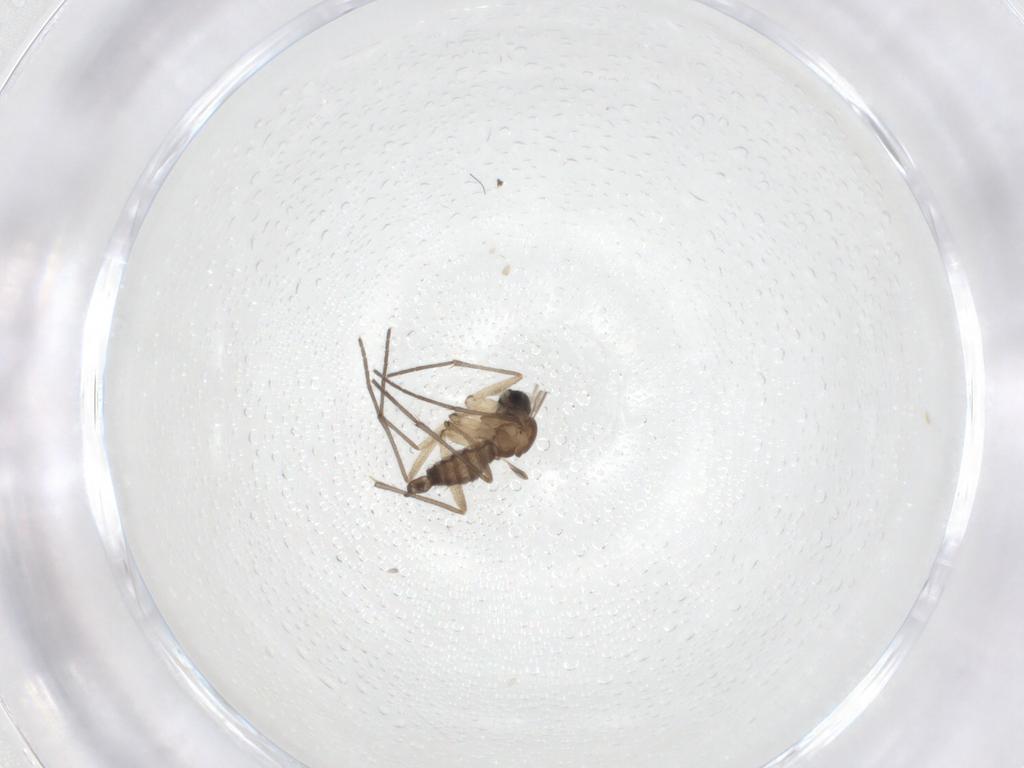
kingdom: Animalia
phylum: Arthropoda
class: Insecta
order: Diptera
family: Sciaridae
